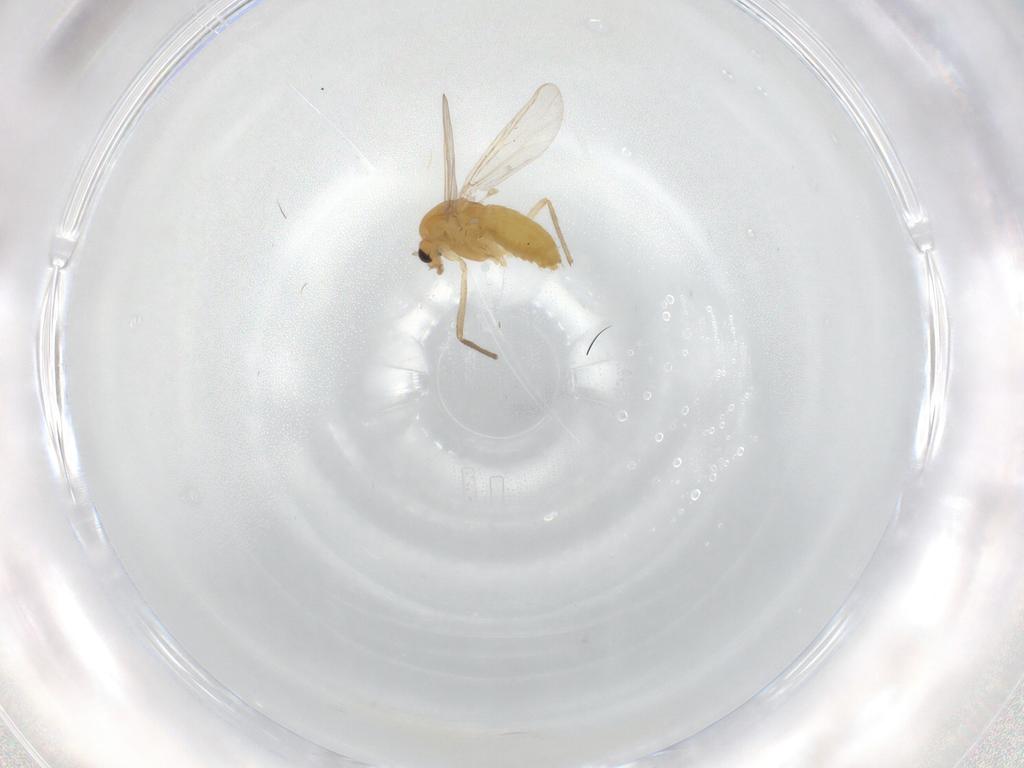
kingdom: Animalia
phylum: Arthropoda
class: Insecta
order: Diptera
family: Chironomidae
